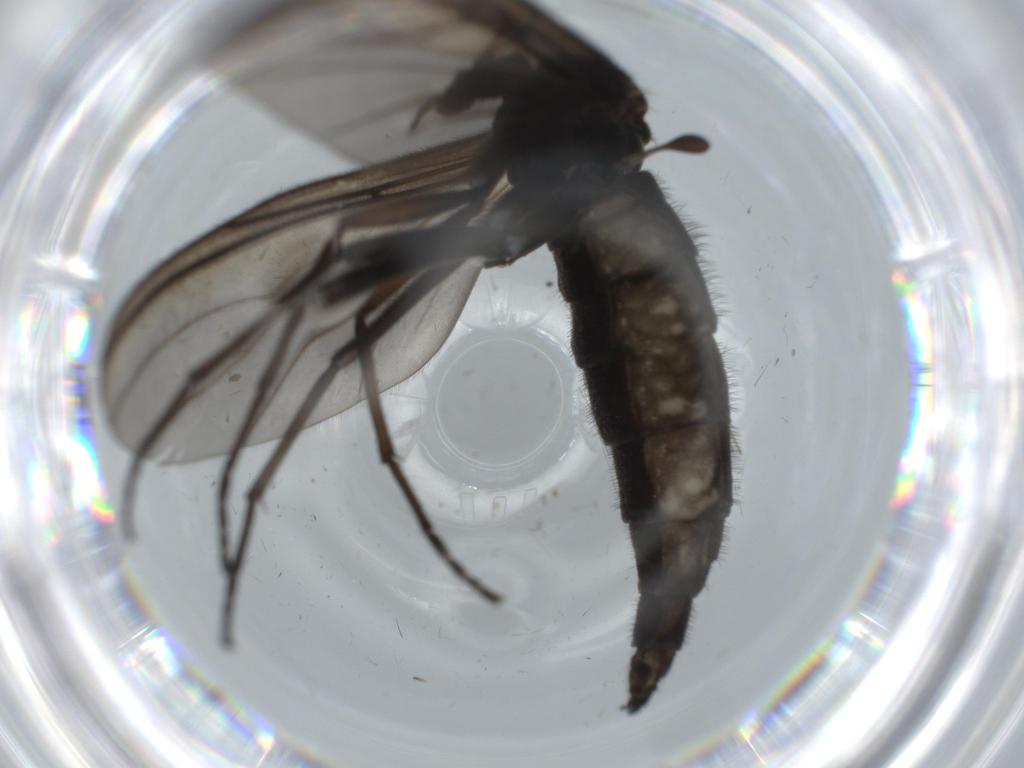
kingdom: Animalia
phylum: Arthropoda
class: Insecta
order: Diptera
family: Sciaridae
